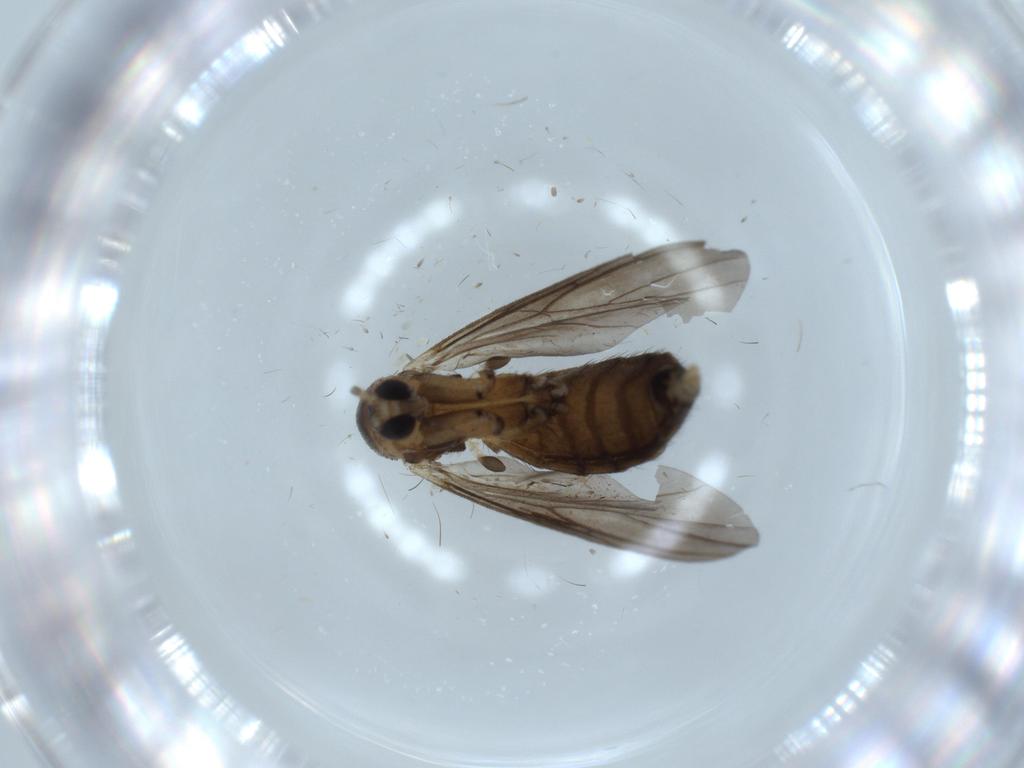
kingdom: Animalia
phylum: Arthropoda
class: Insecta
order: Diptera
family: Mycetophilidae
